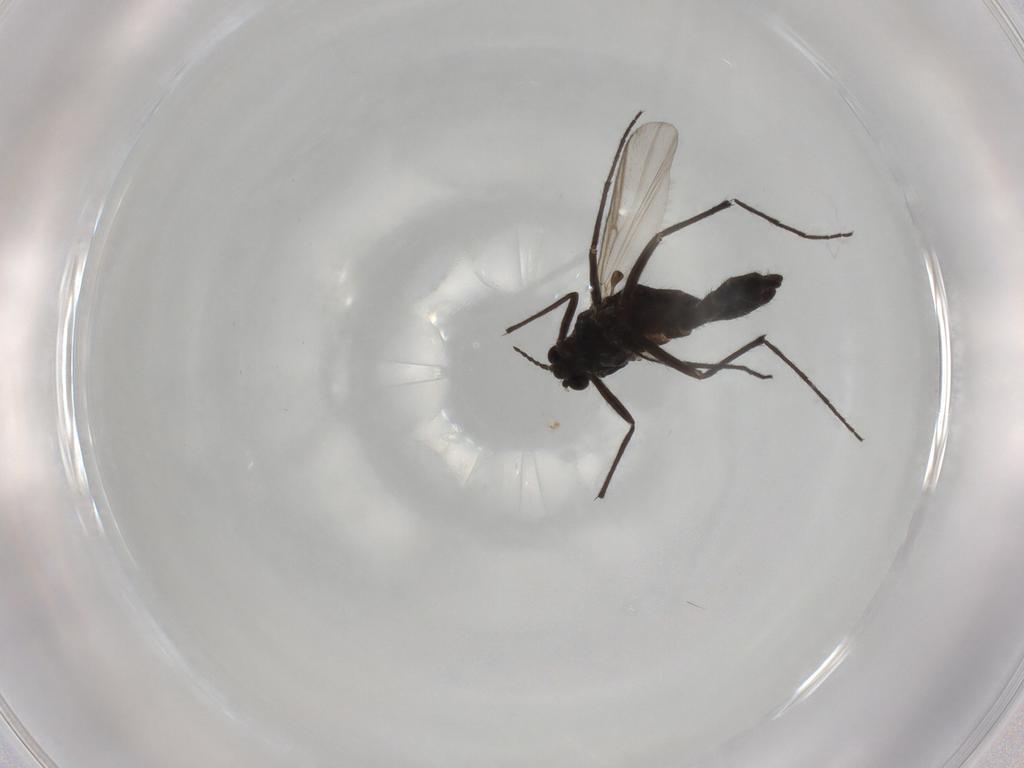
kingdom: Animalia
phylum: Arthropoda
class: Insecta
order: Diptera
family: Chironomidae
